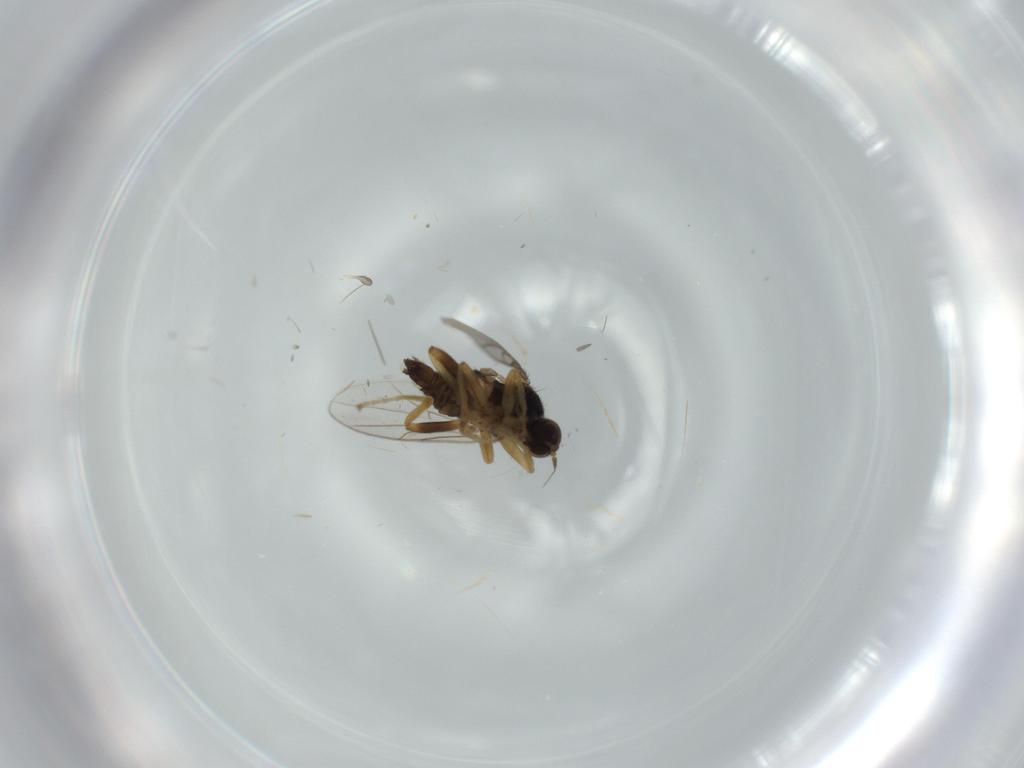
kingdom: Animalia
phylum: Arthropoda
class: Insecta
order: Diptera
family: Hybotidae
